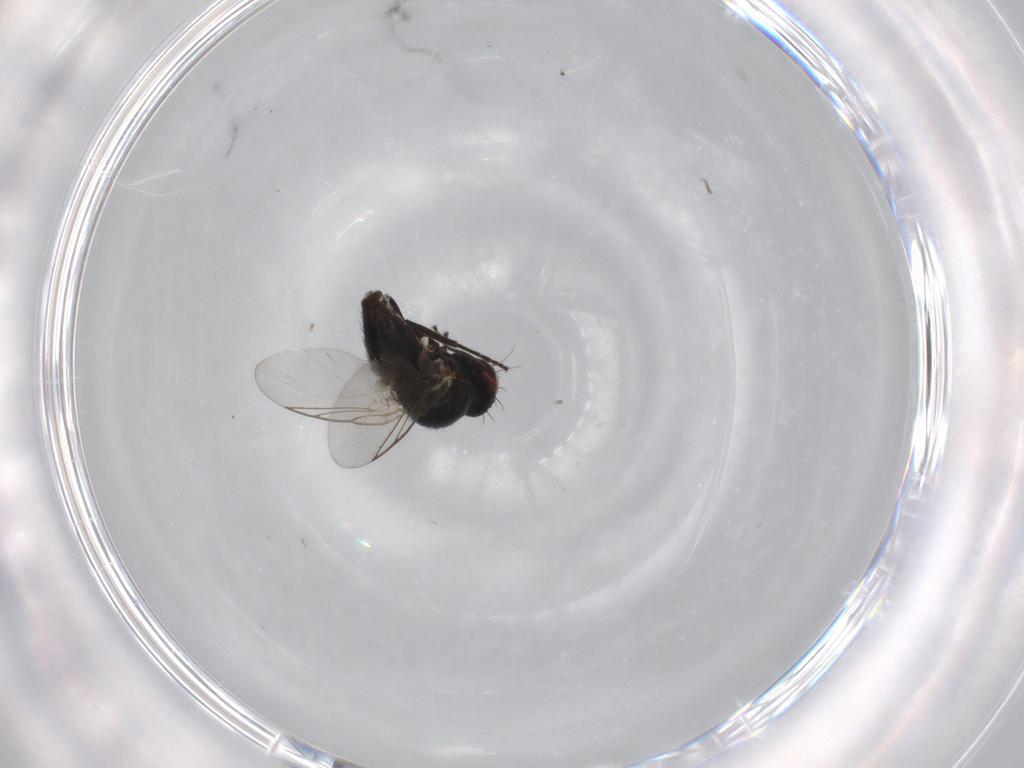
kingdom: Animalia
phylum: Arthropoda
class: Insecta
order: Diptera
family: Agromyzidae
